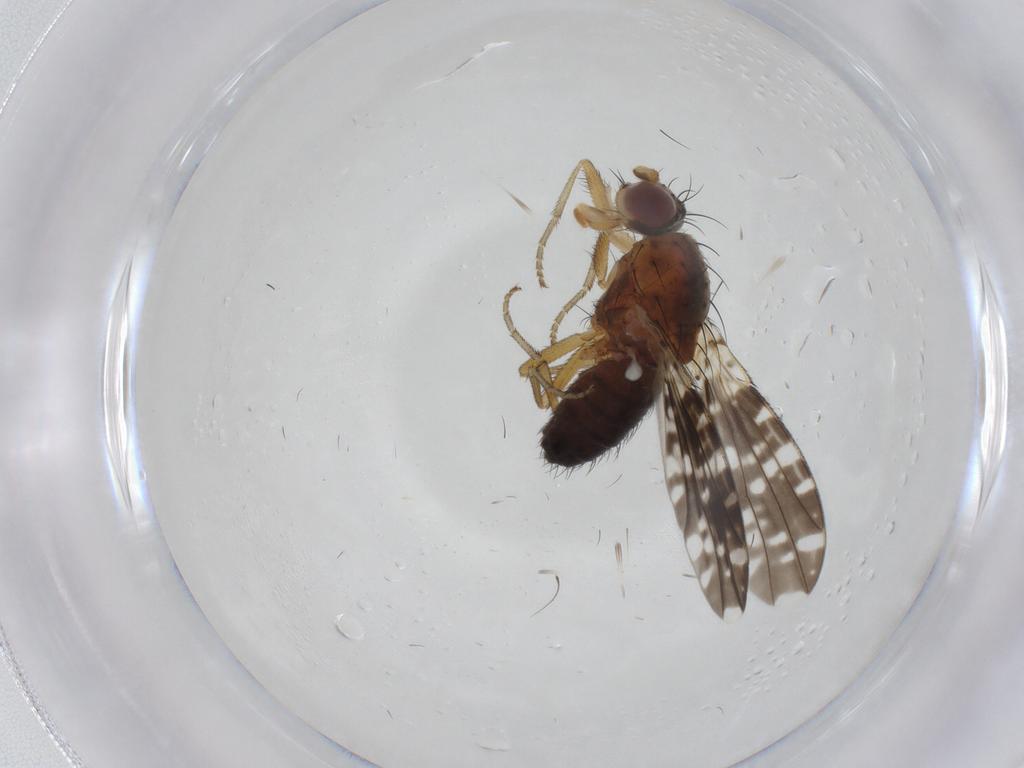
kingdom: Animalia
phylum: Arthropoda
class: Insecta
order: Diptera
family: Heleomyzidae
